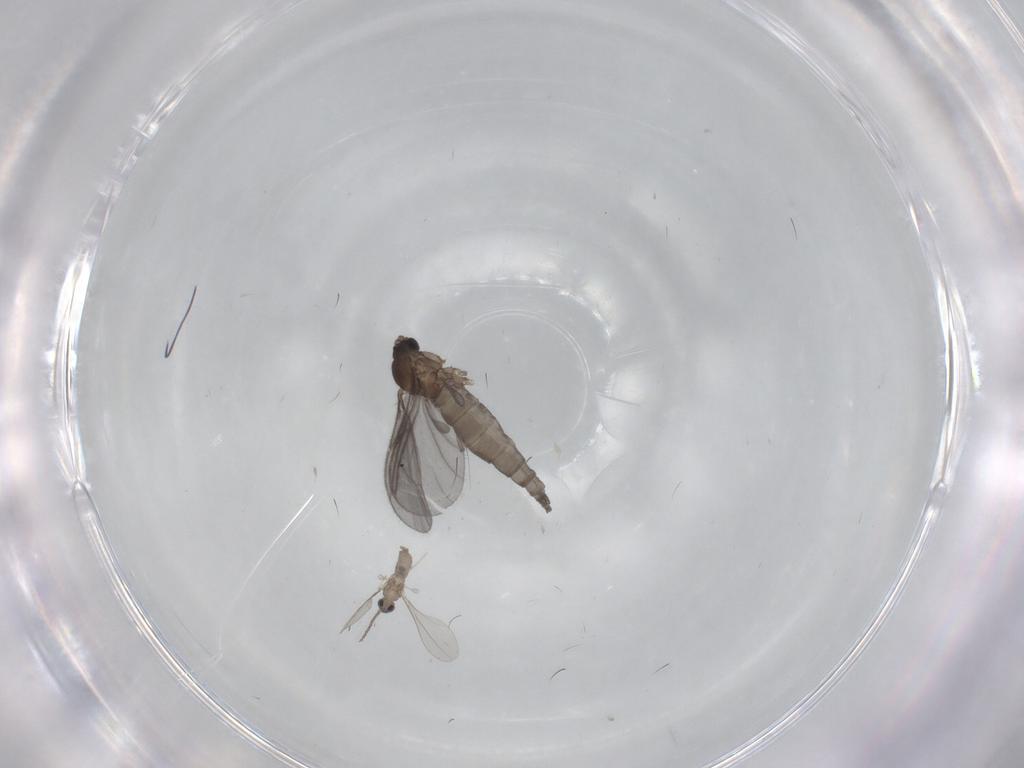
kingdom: Animalia
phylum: Arthropoda
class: Insecta
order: Diptera
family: Sciaridae
